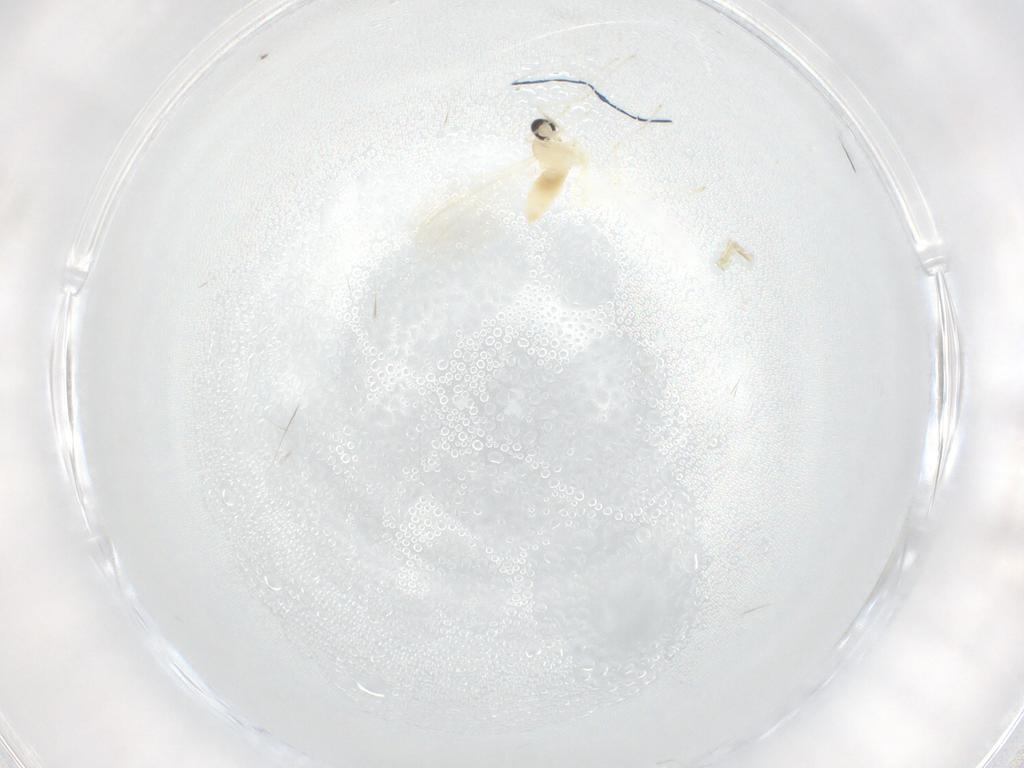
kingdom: Animalia
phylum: Arthropoda
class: Insecta
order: Diptera
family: Cecidomyiidae
